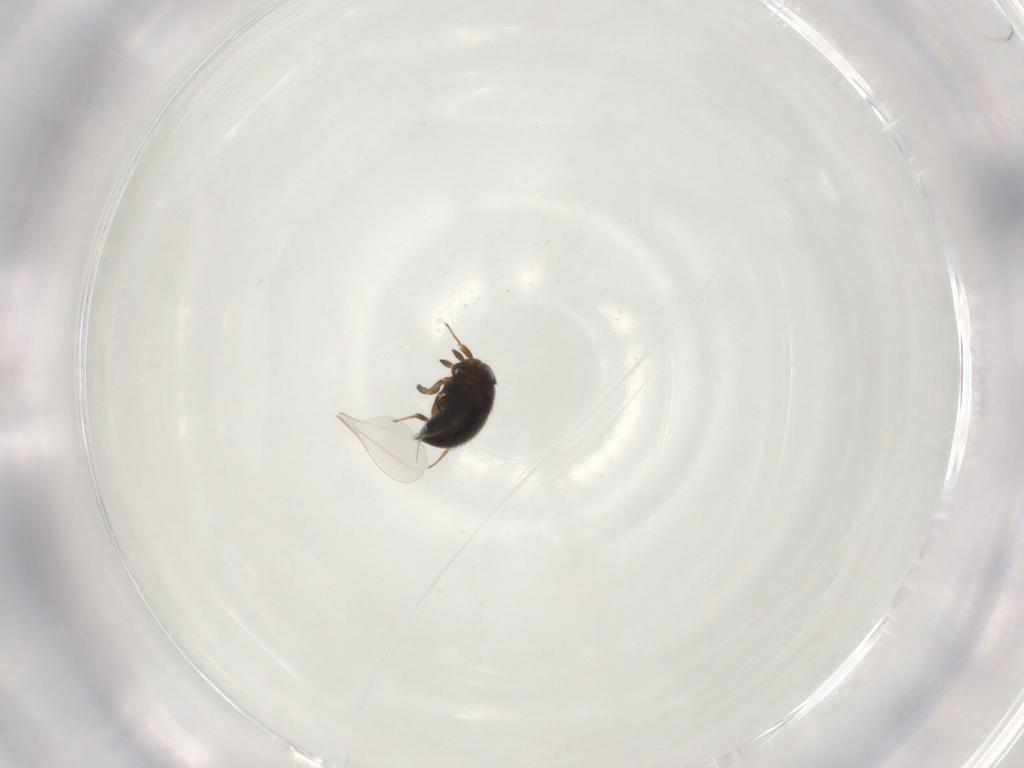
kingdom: Animalia
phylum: Arthropoda
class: Insecta
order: Hymenoptera
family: Scelionidae
